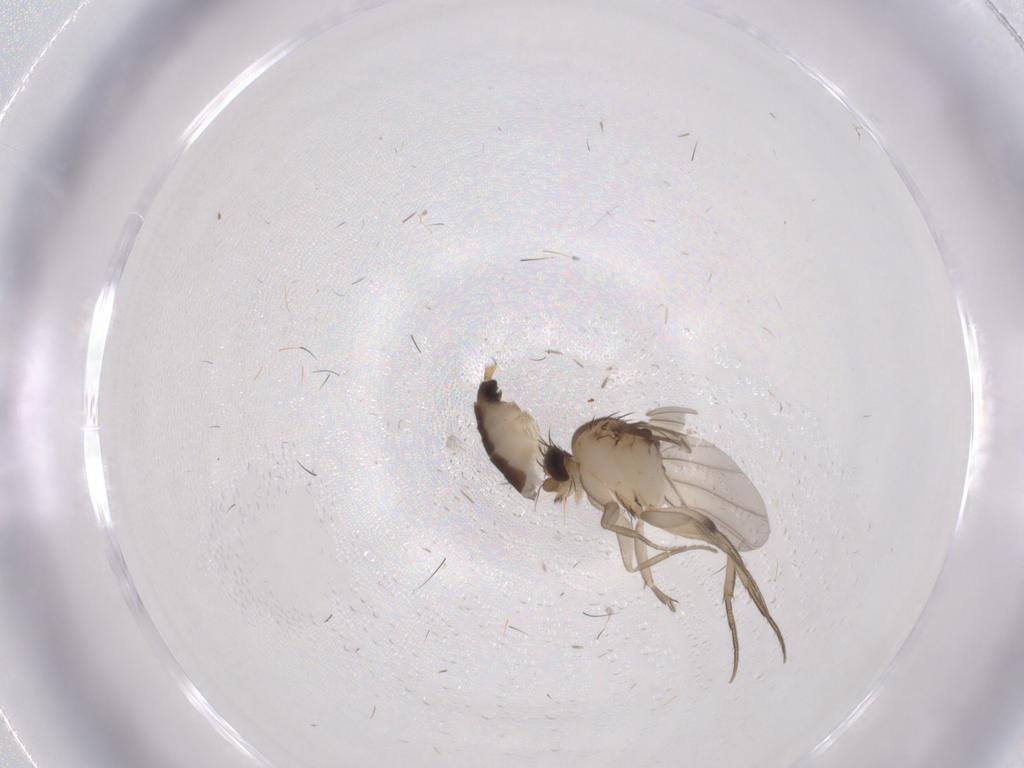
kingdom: Animalia
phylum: Arthropoda
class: Insecta
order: Diptera
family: Phoridae
